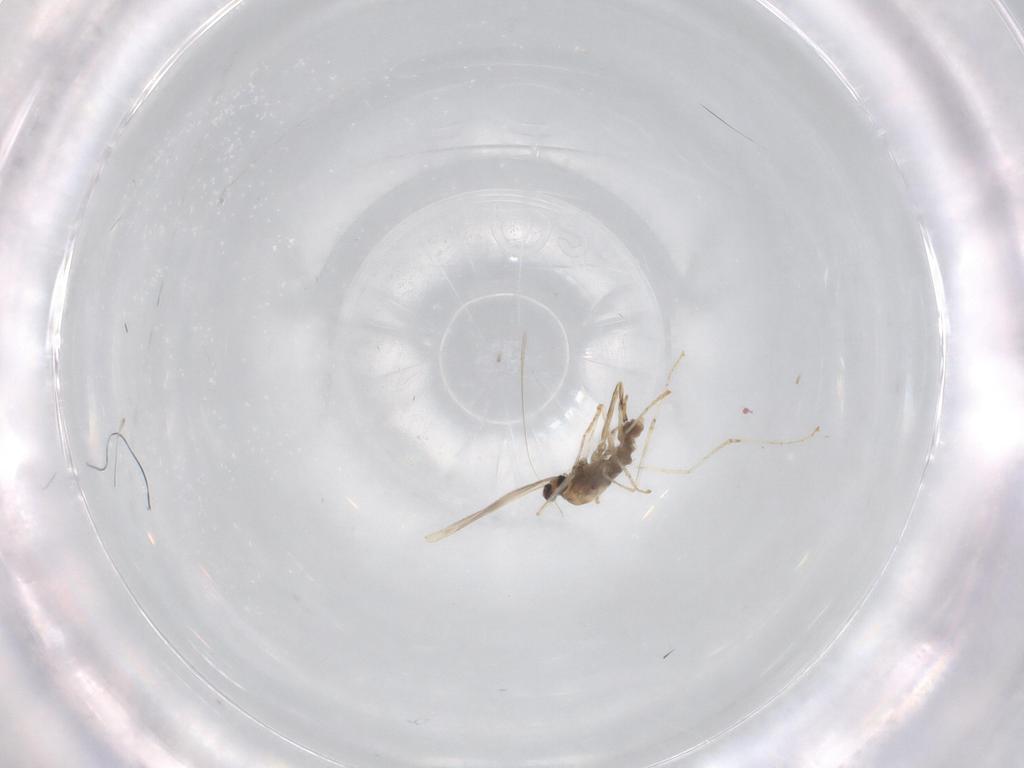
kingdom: Animalia
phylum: Arthropoda
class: Insecta
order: Diptera
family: Cecidomyiidae
